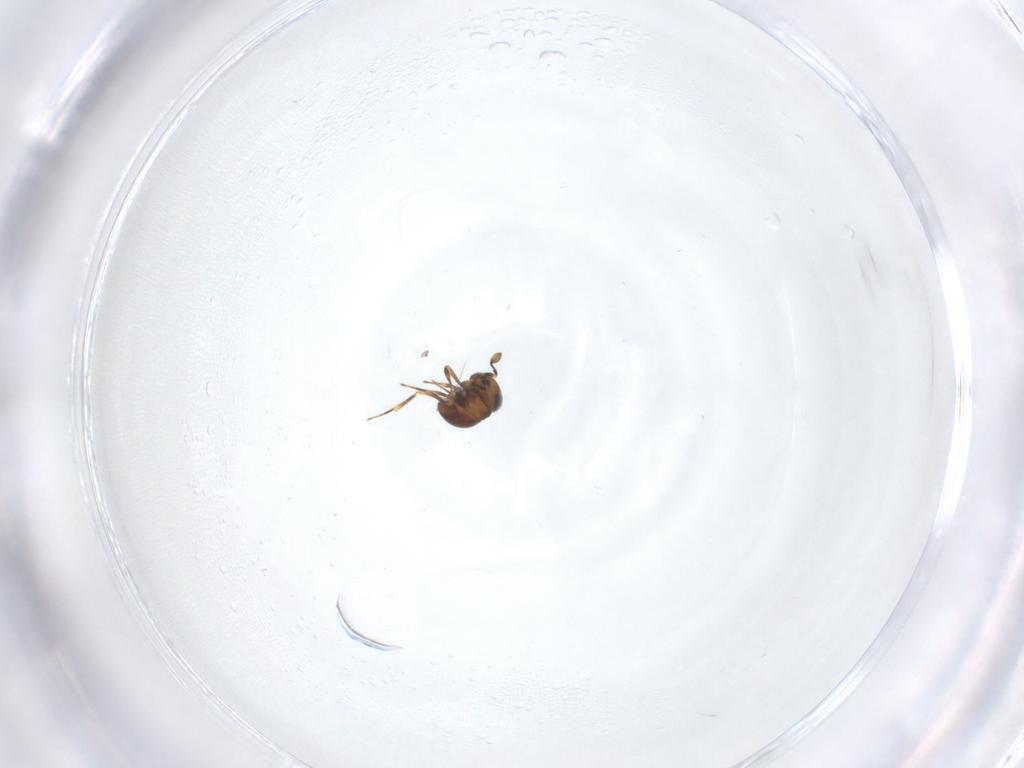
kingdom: Animalia
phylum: Arthropoda
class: Insecta
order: Hymenoptera
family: Scelionidae
